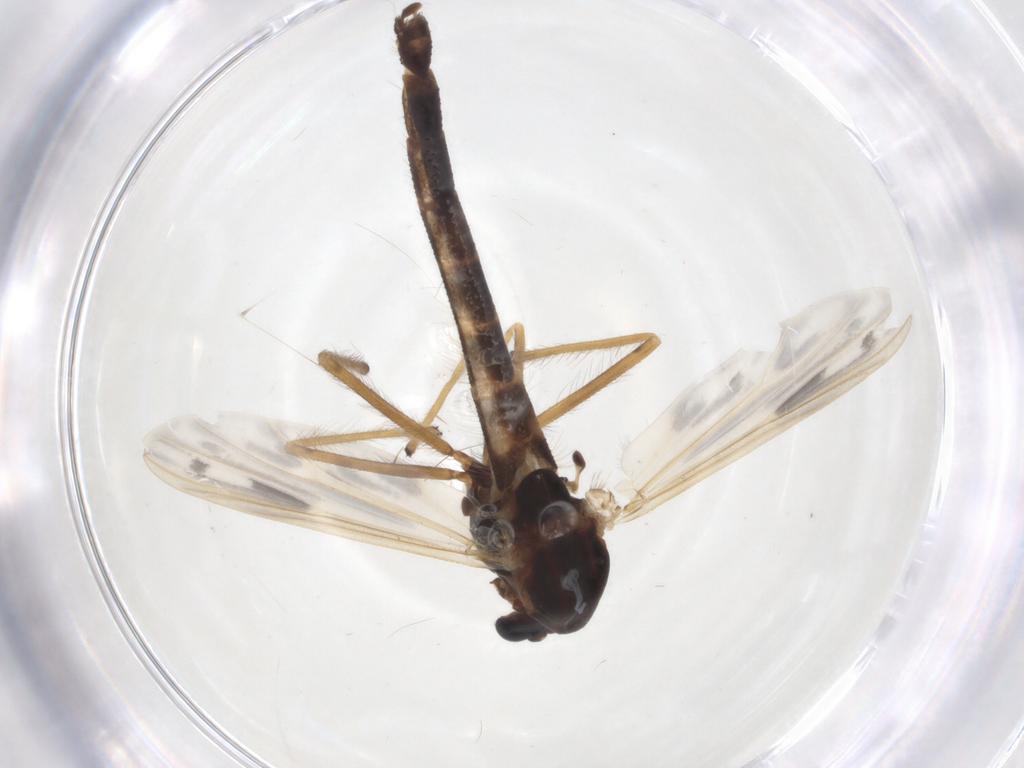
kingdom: Animalia
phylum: Arthropoda
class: Insecta
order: Diptera
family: Chironomidae
